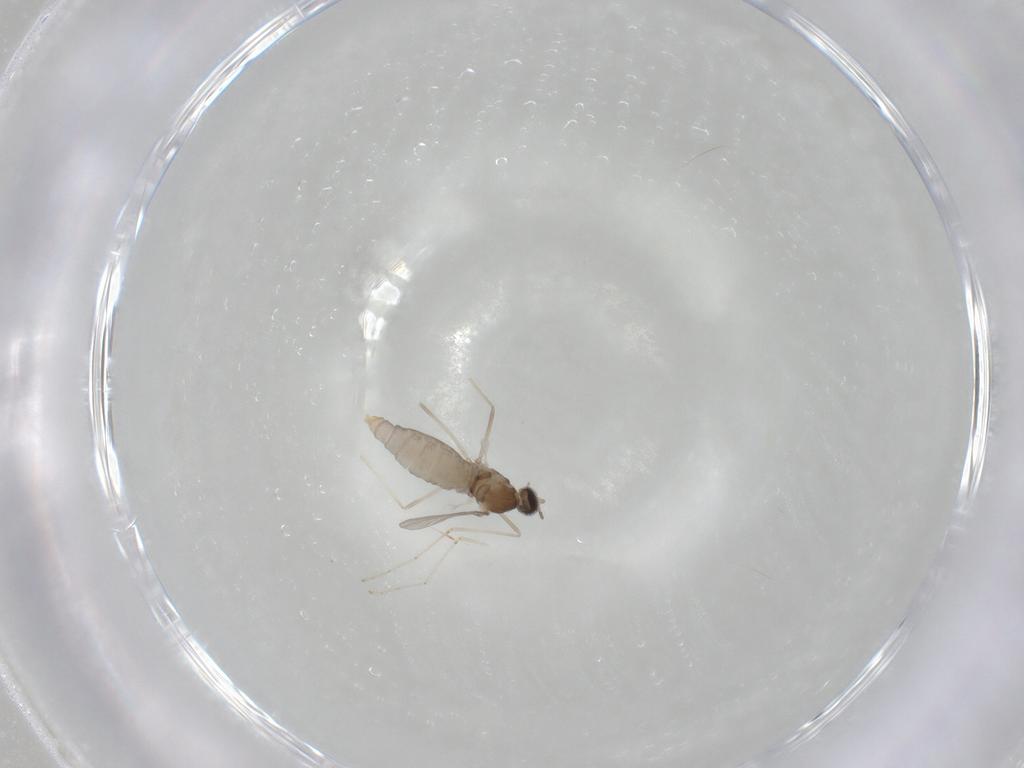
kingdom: Animalia
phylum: Arthropoda
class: Insecta
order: Diptera
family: Cecidomyiidae
